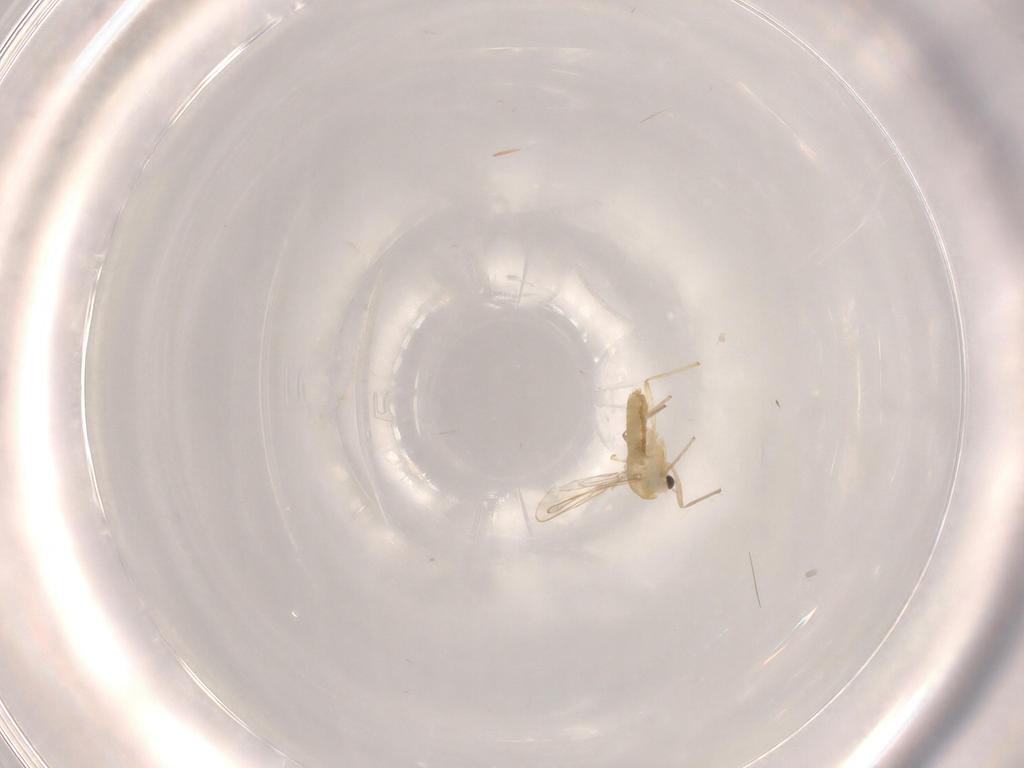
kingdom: Animalia
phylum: Arthropoda
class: Insecta
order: Diptera
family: Chironomidae
